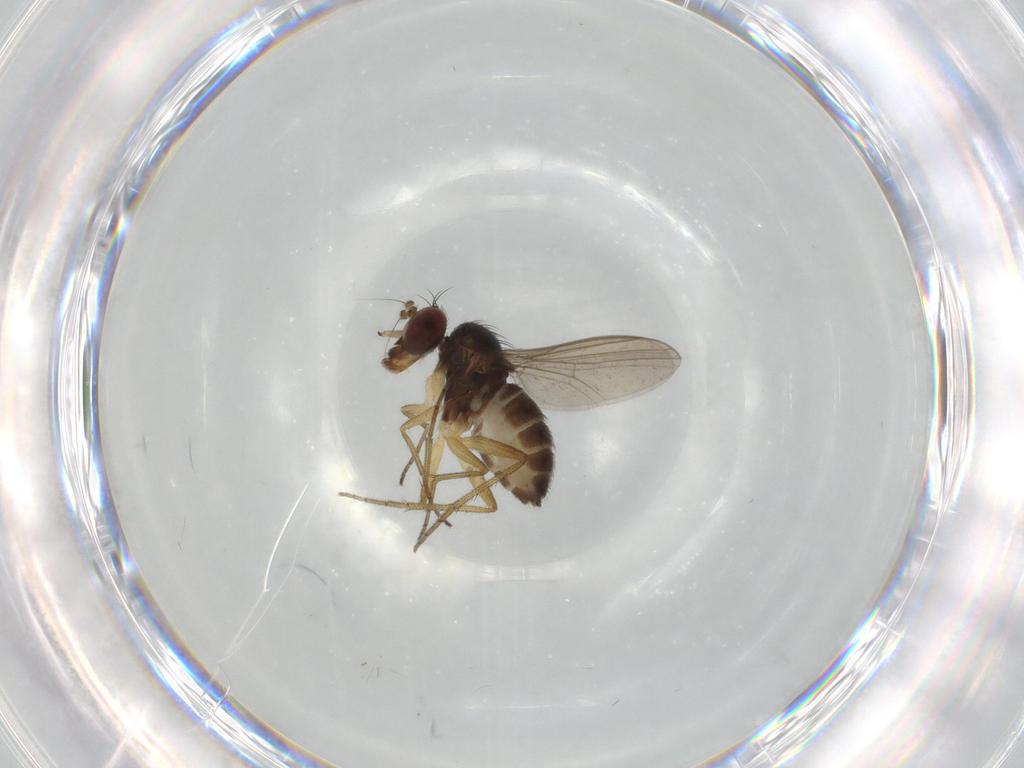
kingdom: Animalia
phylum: Arthropoda
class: Insecta
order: Diptera
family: Dolichopodidae
